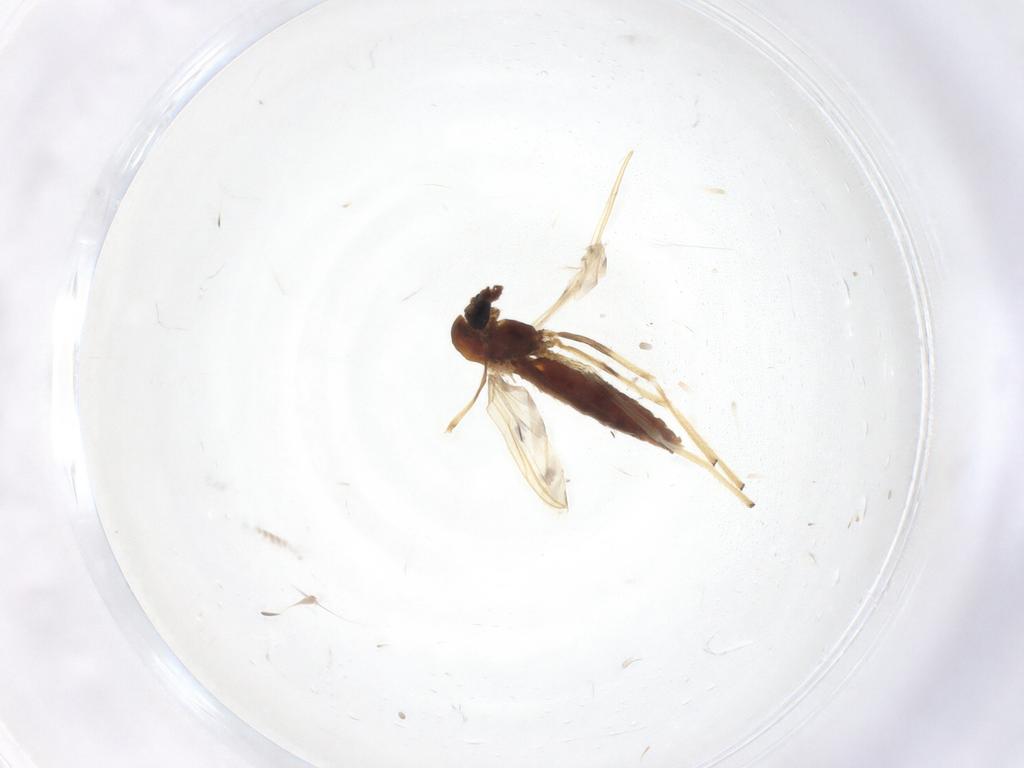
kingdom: Animalia
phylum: Arthropoda
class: Insecta
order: Diptera
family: Chironomidae
